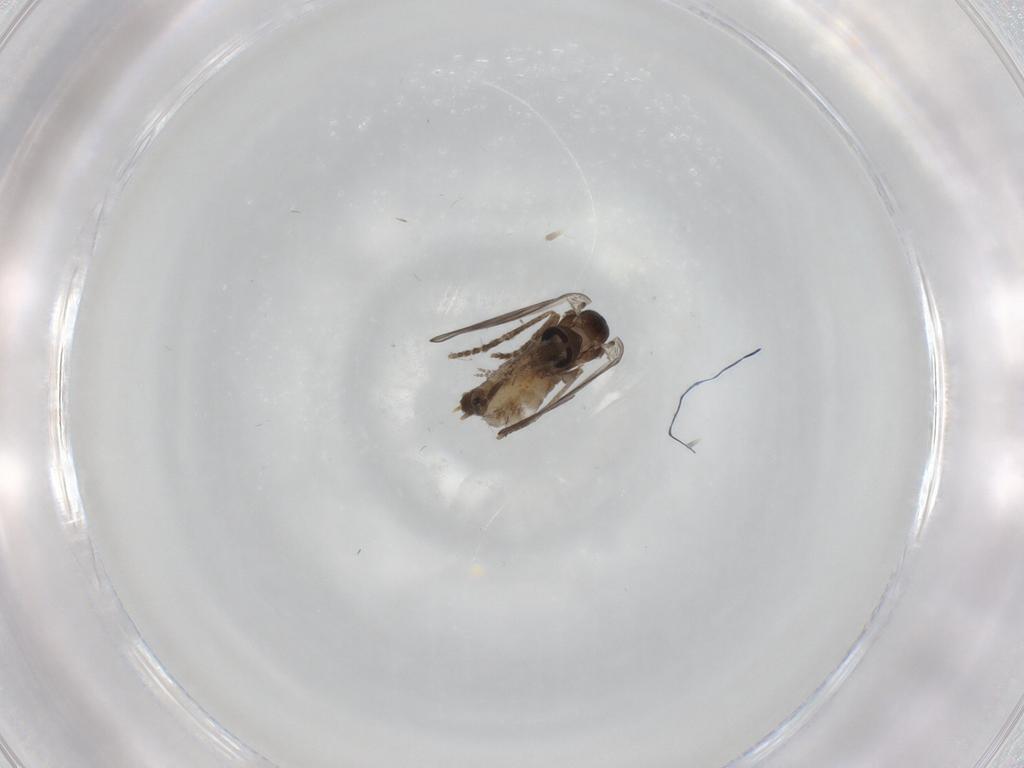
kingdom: Animalia
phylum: Arthropoda
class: Insecta
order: Diptera
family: Psychodidae
